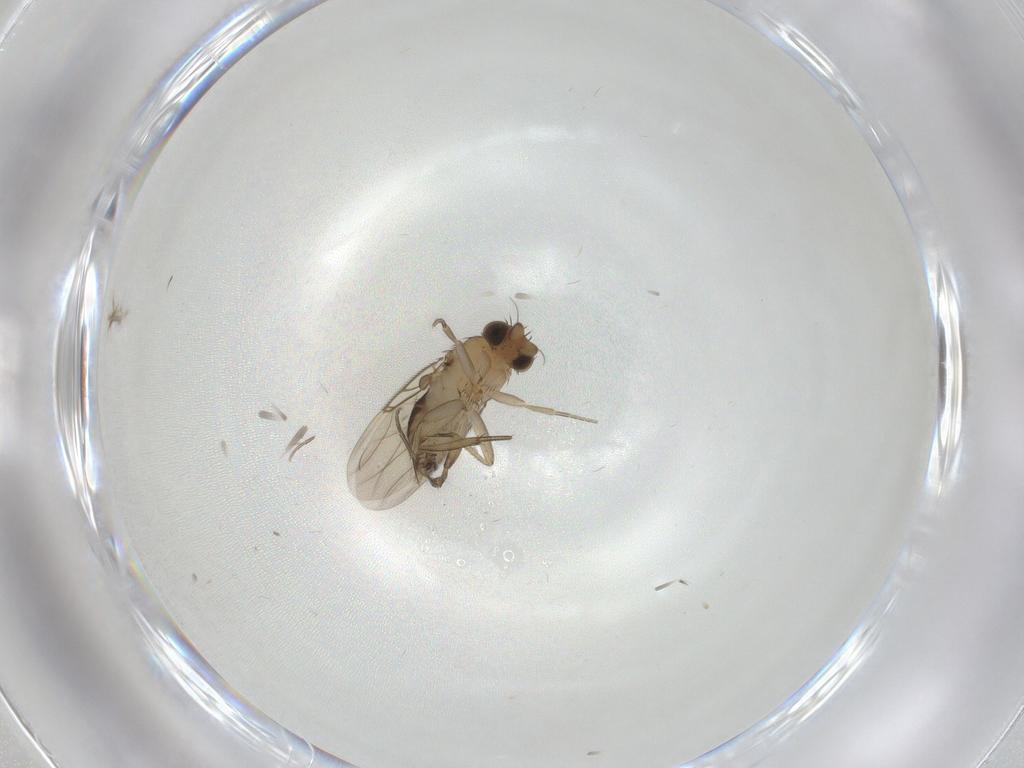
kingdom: Animalia
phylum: Arthropoda
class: Insecta
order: Diptera
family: Phoridae
